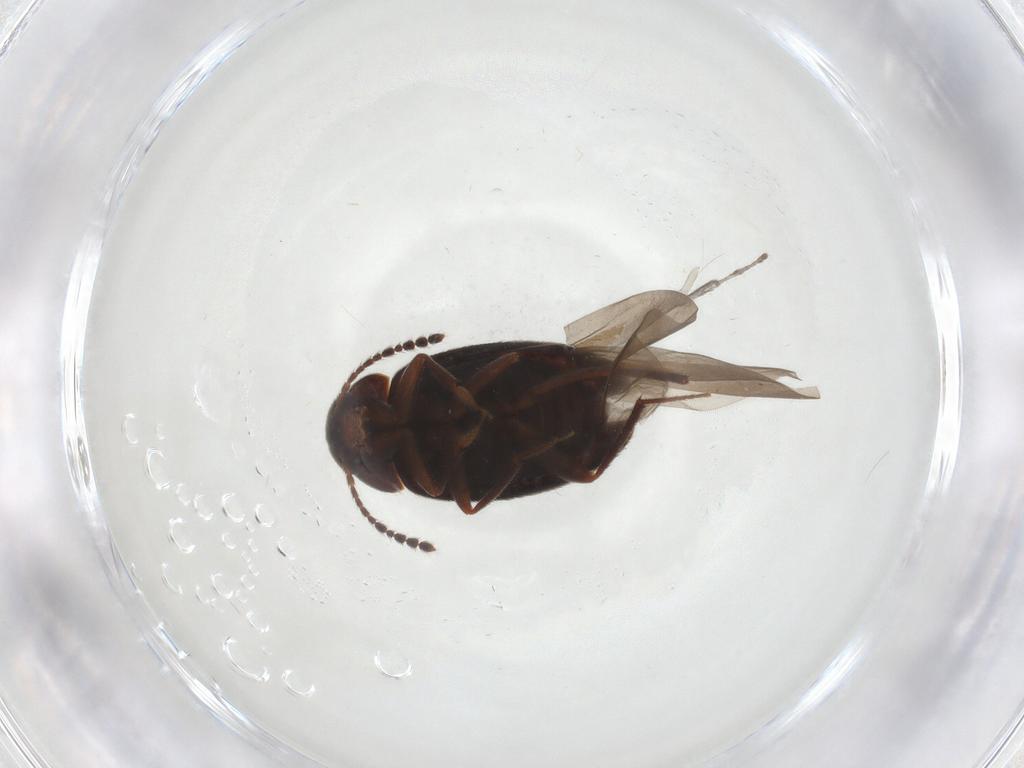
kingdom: Animalia
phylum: Arthropoda
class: Insecta
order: Coleoptera
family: Leiodidae
